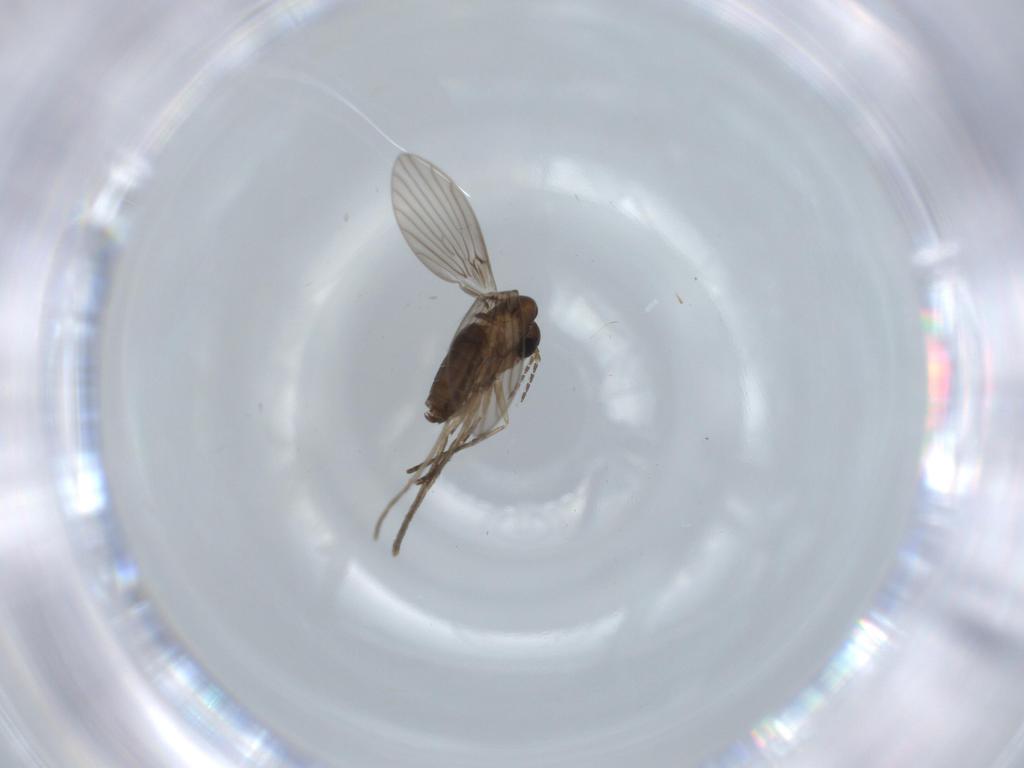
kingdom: Animalia
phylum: Arthropoda
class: Insecta
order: Diptera
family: Psychodidae
